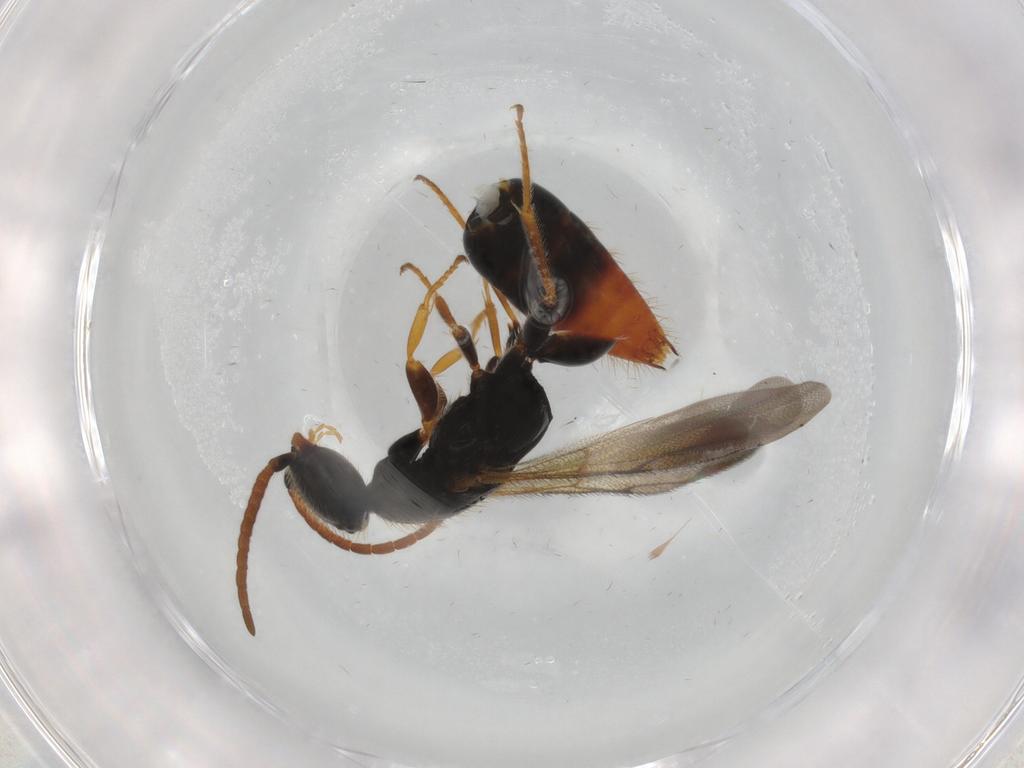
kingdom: Animalia
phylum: Arthropoda
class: Insecta
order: Hymenoptera
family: Bethylidae
